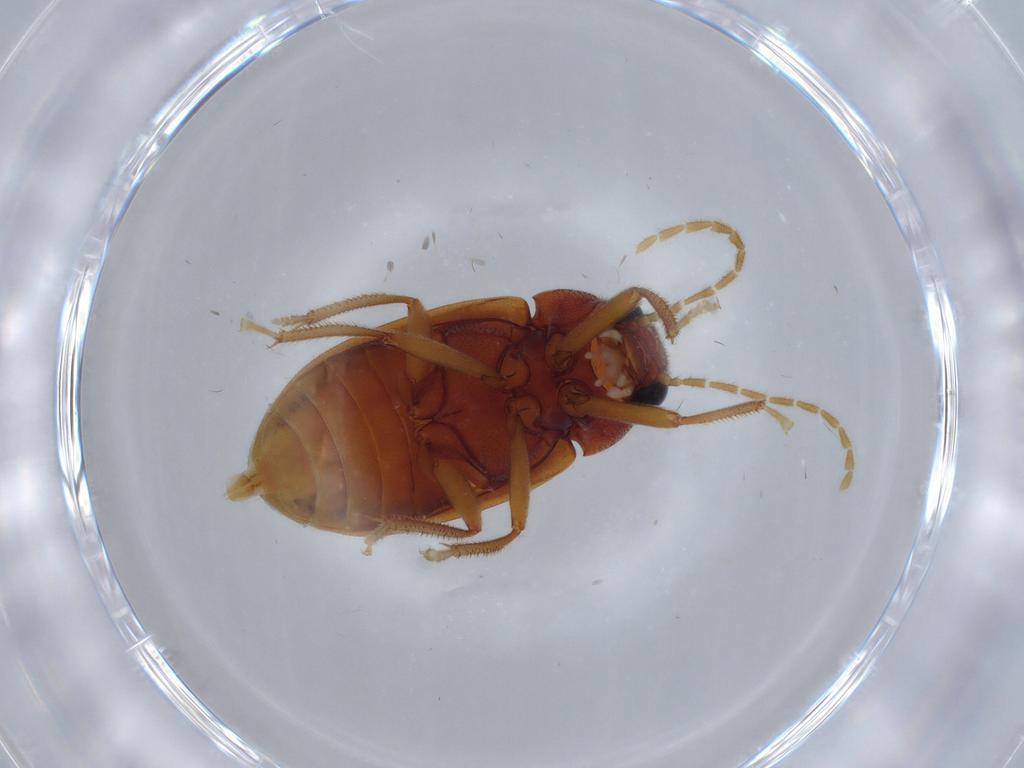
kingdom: Animalia
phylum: Arthropoda
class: Insecta
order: Coleoptera
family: Ptilodactylidae
